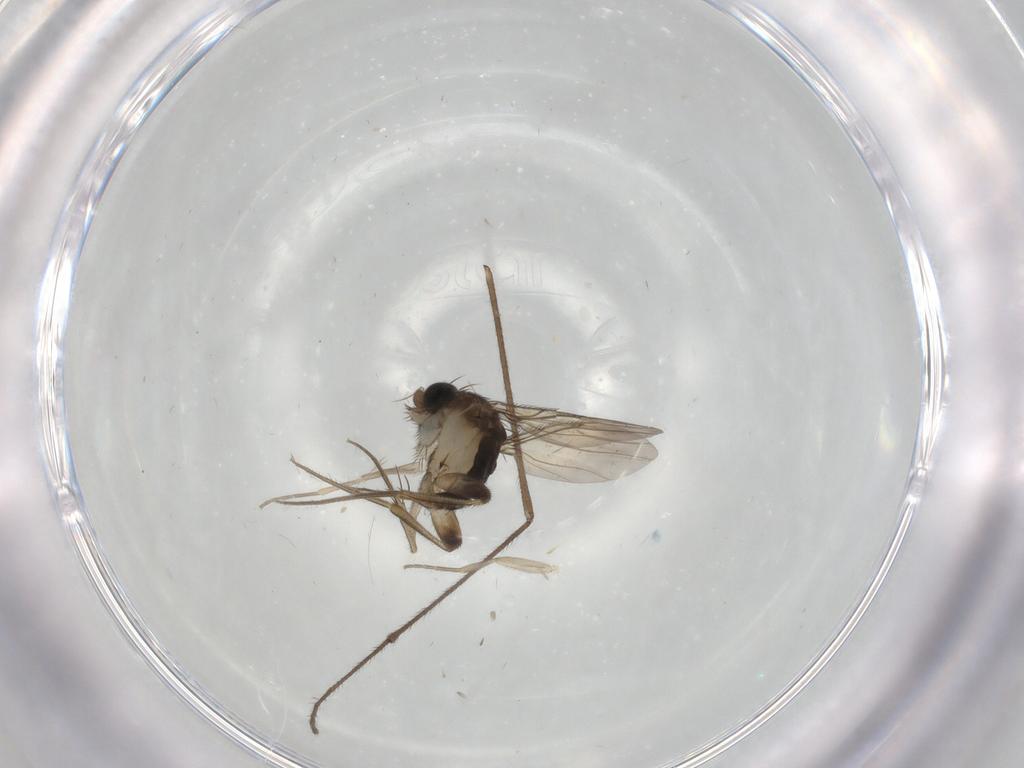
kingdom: Animalia
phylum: Arthropoda
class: Insecta
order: Diptera
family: Phoridae
